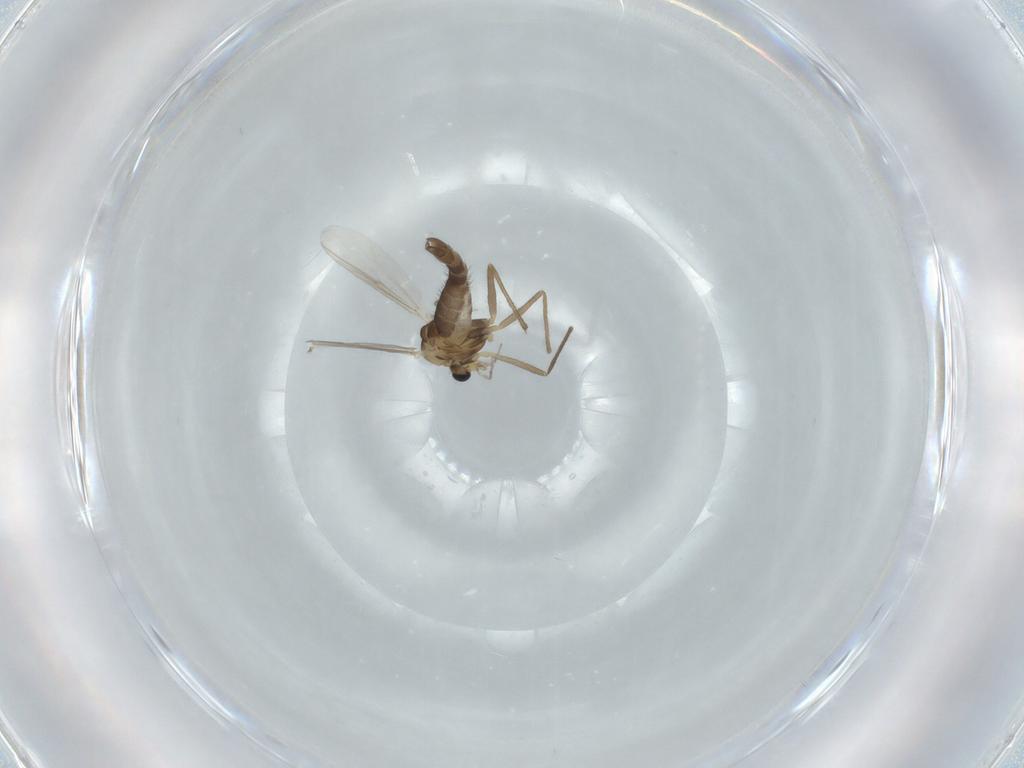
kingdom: Animalia
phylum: Arthropoda
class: Insecta
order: Diptera
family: Chironomidae
